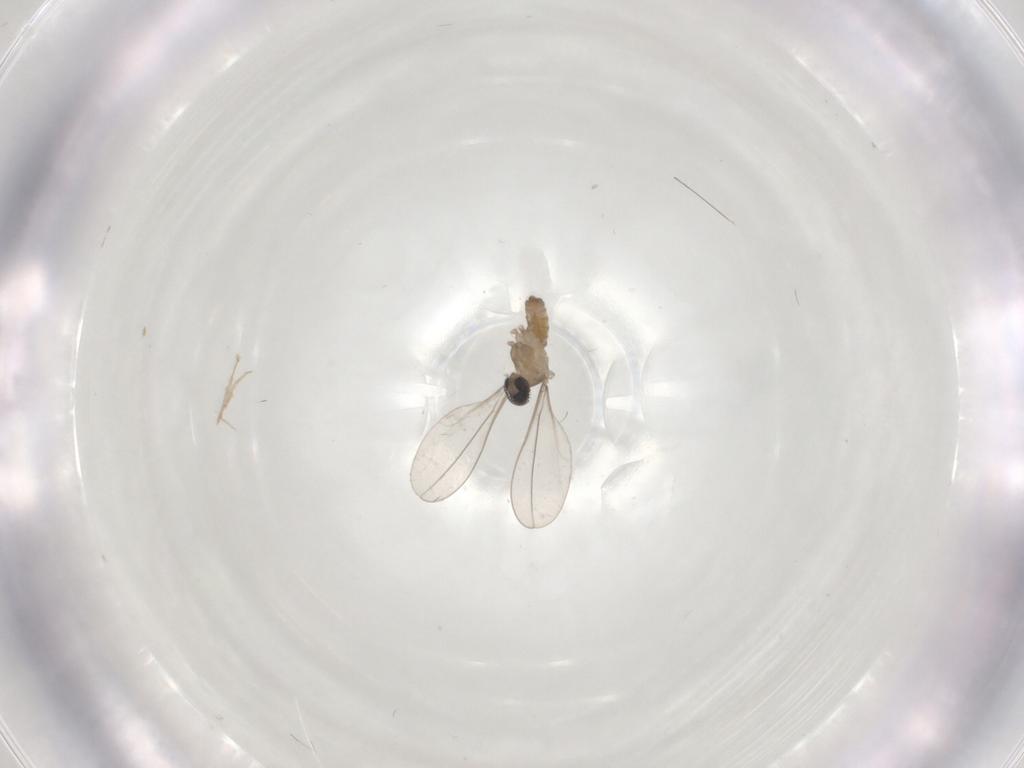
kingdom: Animalia
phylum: Arthropoda
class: Insecta
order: Diptera
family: Cecidomyiidae
